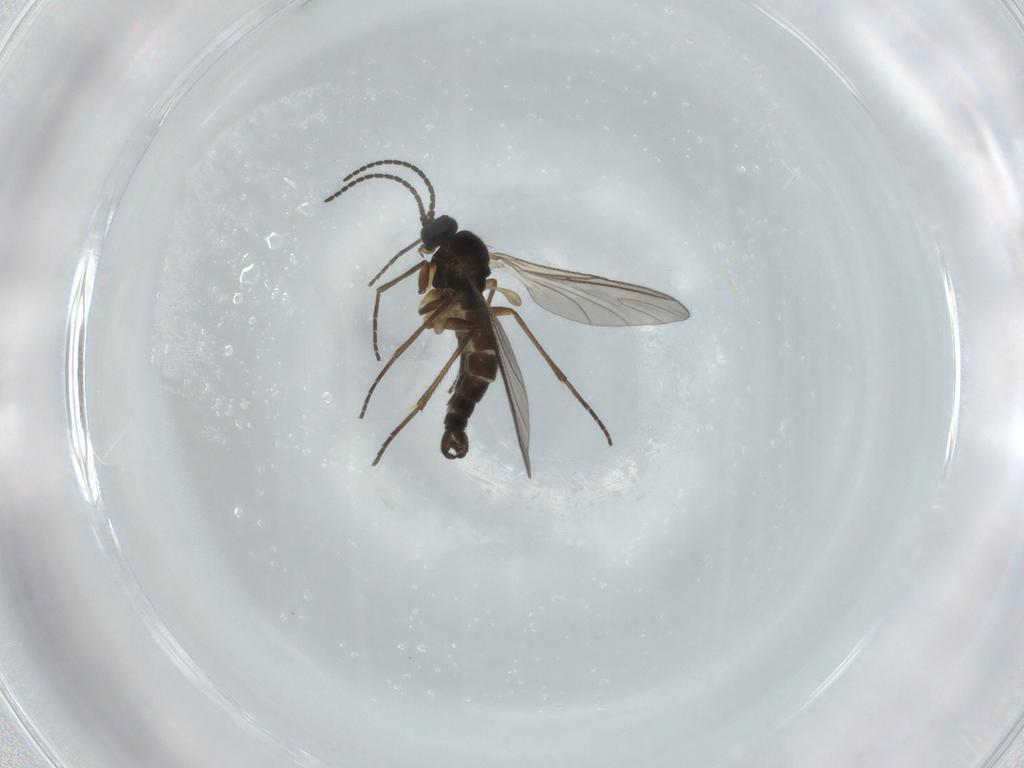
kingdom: Animalia
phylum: Arthropoda
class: Insecta
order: Diptera
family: Sciaridae
